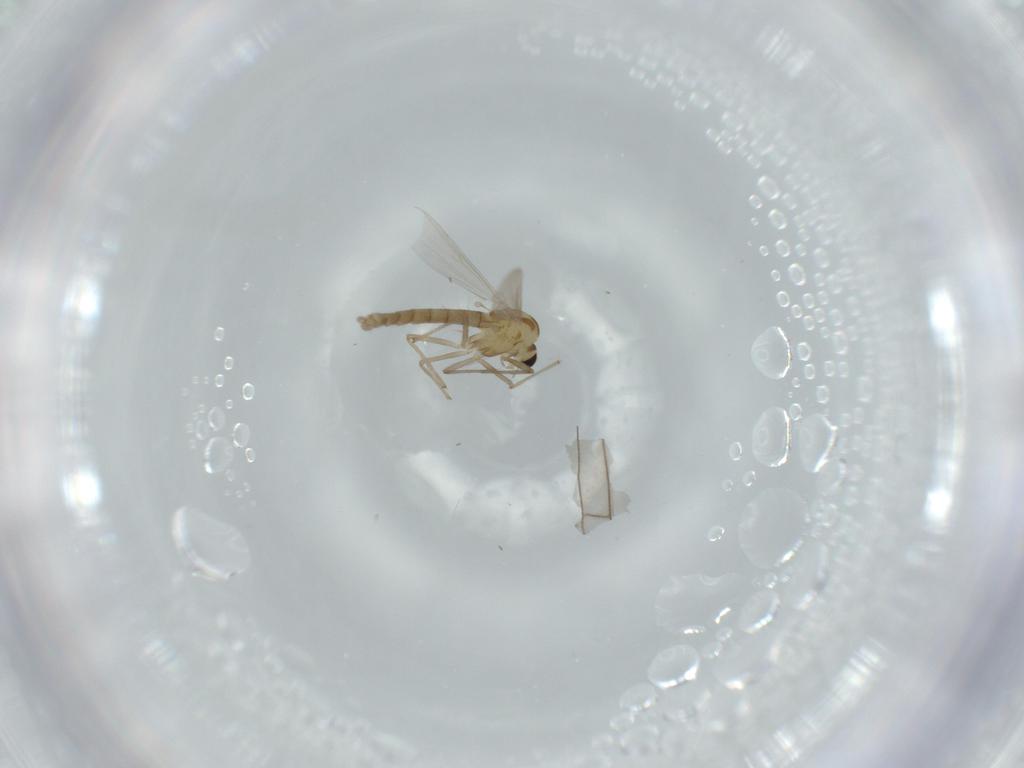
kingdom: Animalia
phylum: Arthropoda
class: Insecta
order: Diptera
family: Chironomidae
